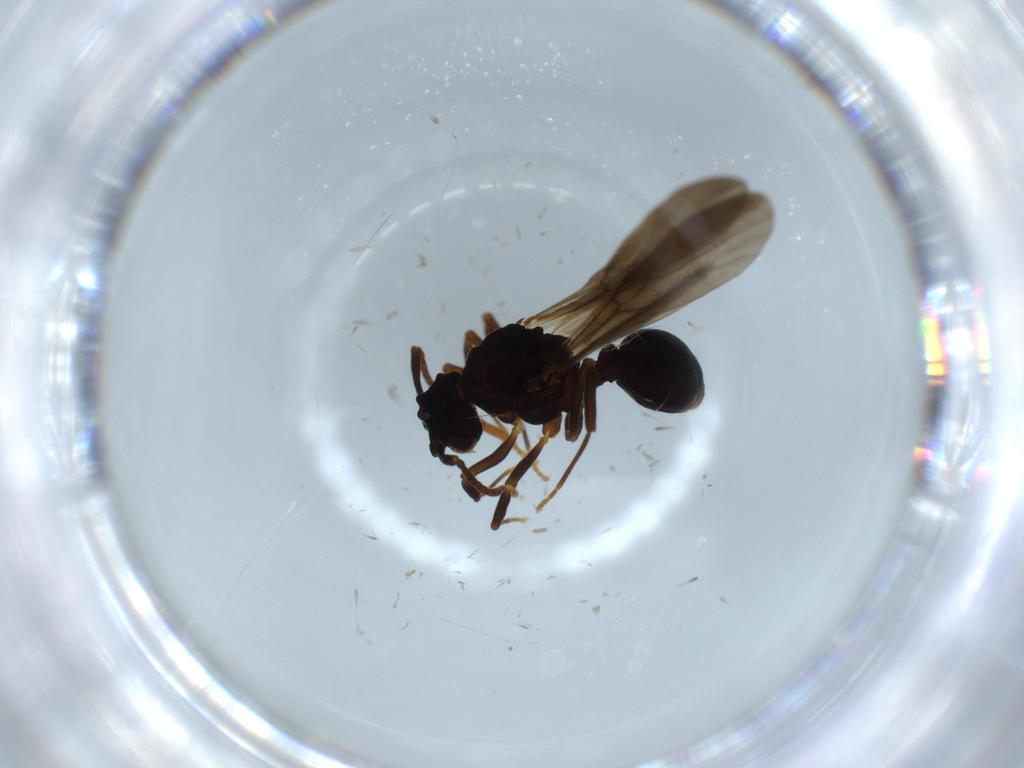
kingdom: Animalia
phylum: Arthropoda
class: Insecta
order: Hymenoptera
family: Formicidae
